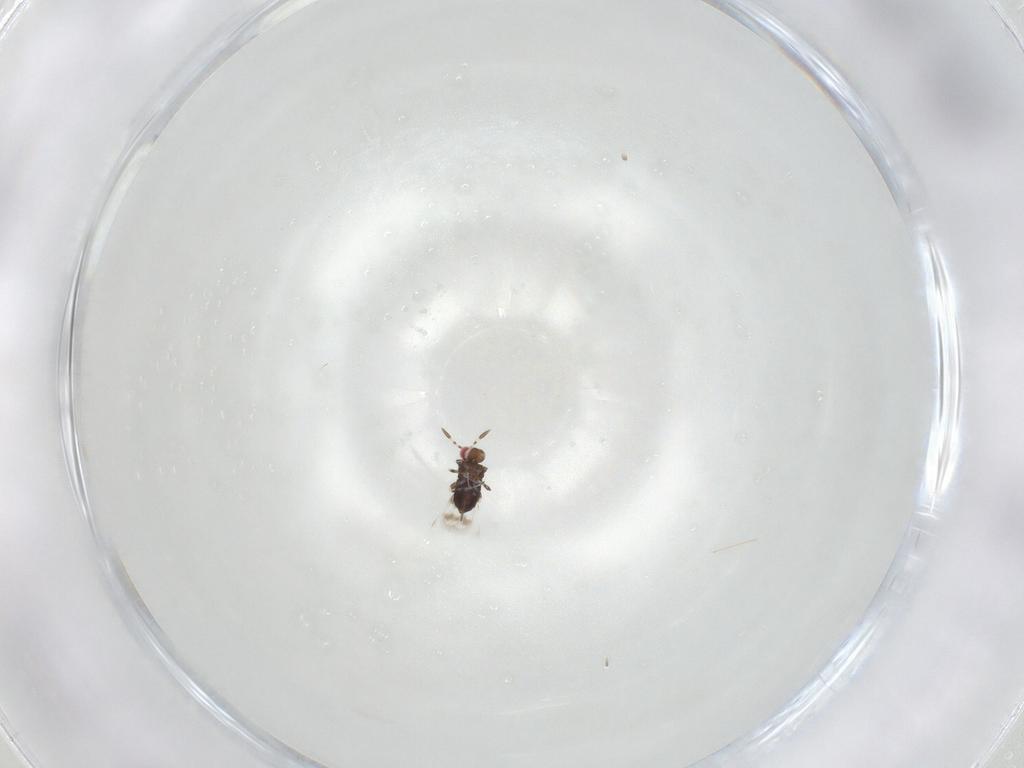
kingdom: Animalia
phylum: Arthropoda
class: Insecta
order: Hymenoptera
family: Azotidae
